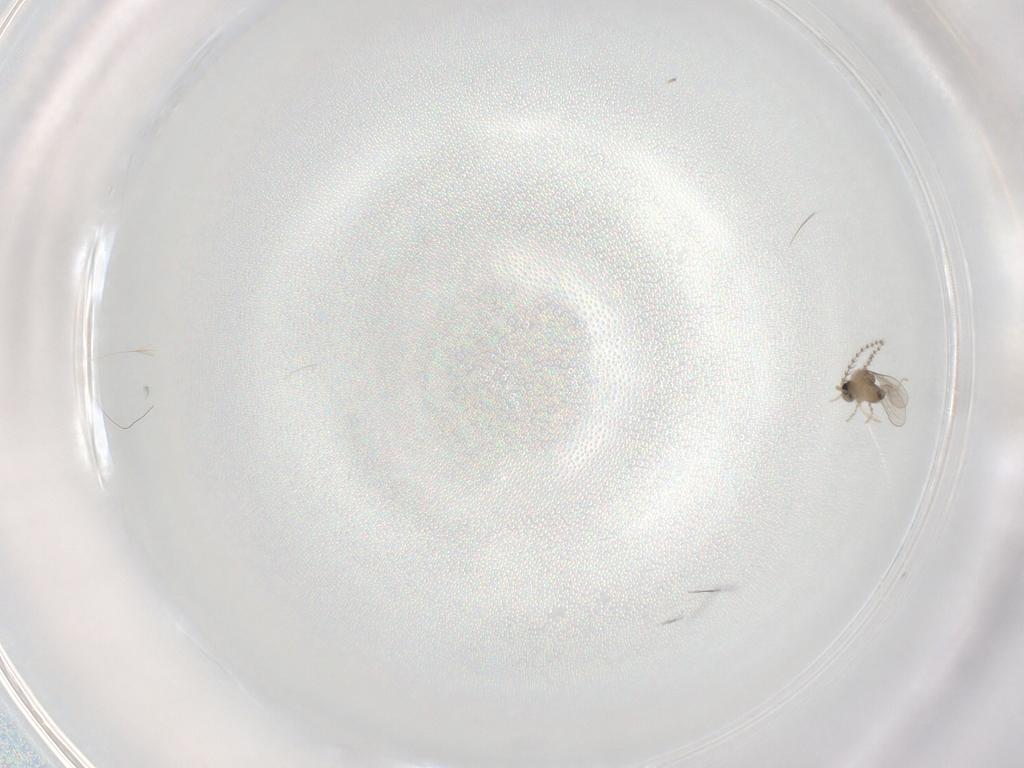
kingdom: Animalia
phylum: Arthropoda
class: Insecta
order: Diptera
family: Cecidomyiidae
